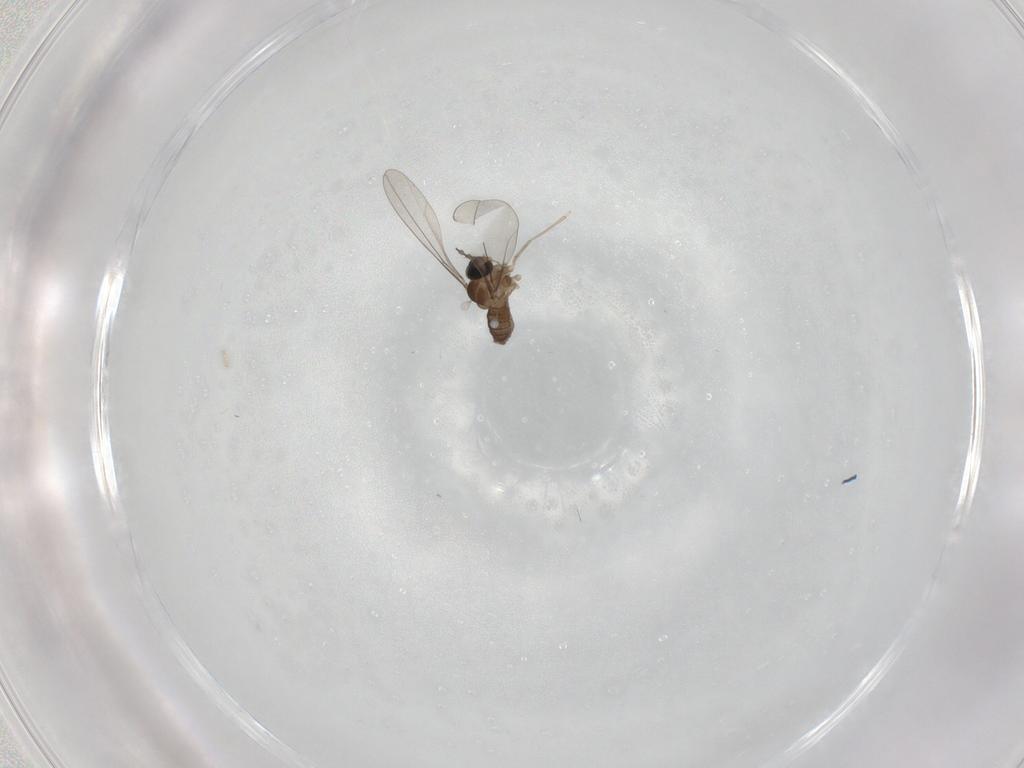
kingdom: Animalia
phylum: Arthropoda
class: Insecta
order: Diptera
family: Cecidomyiidae
